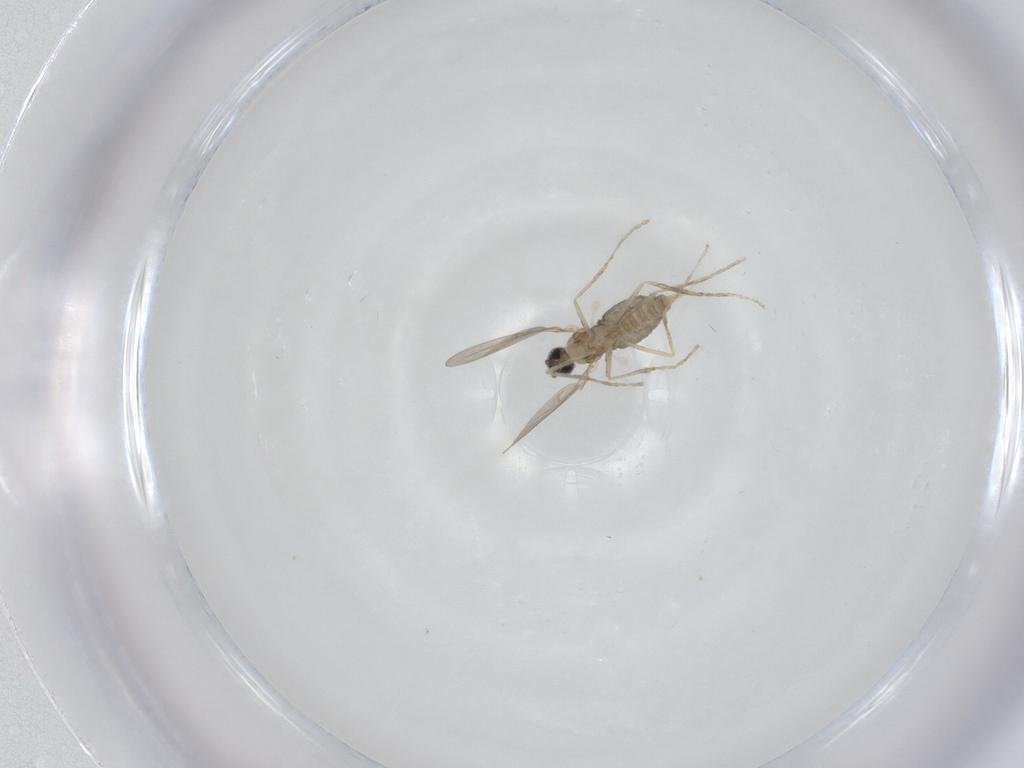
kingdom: Animalia
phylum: Arthropoda
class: Insecta
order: Diptera
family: Cecidomyiidae
